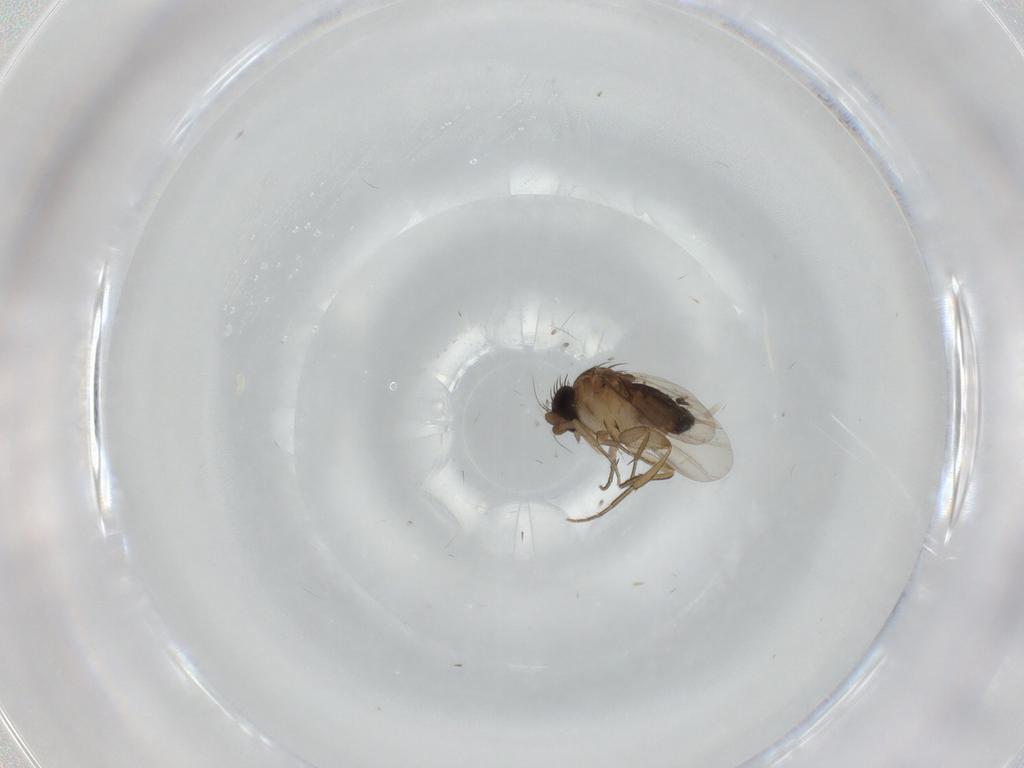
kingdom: Animalia
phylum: Arthropoda
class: Insecta
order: Diptera
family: Phoridae
